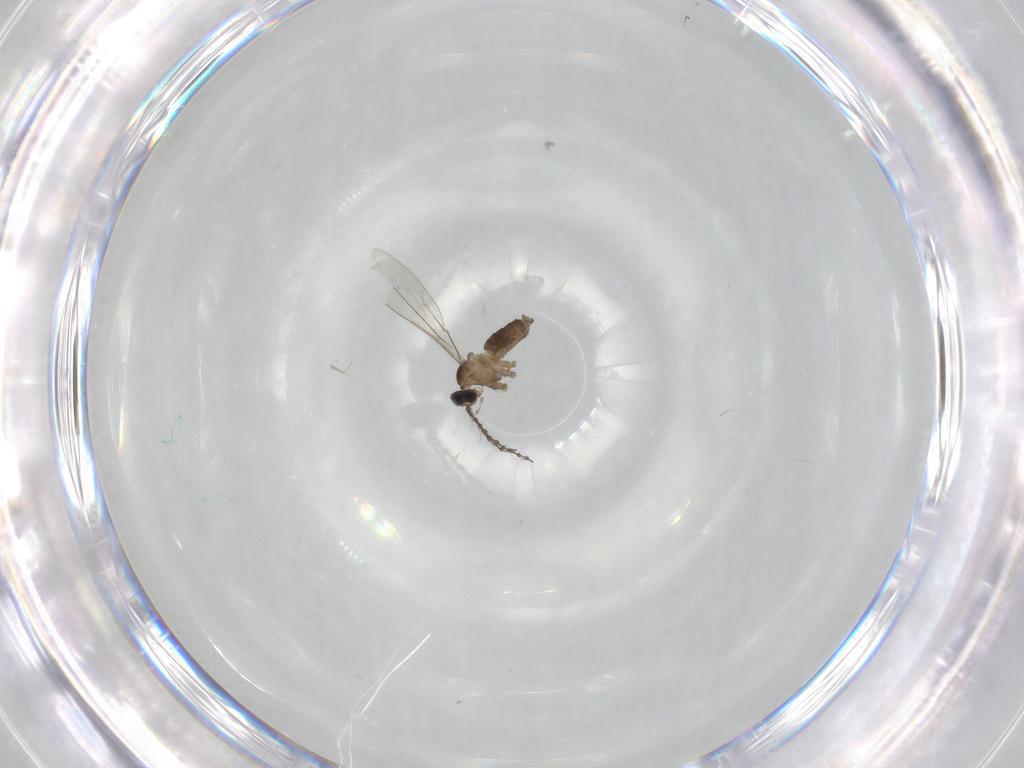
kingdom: Animalia
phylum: Arthropoda
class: Insecta
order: Diptera
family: Cecidomyiidae
